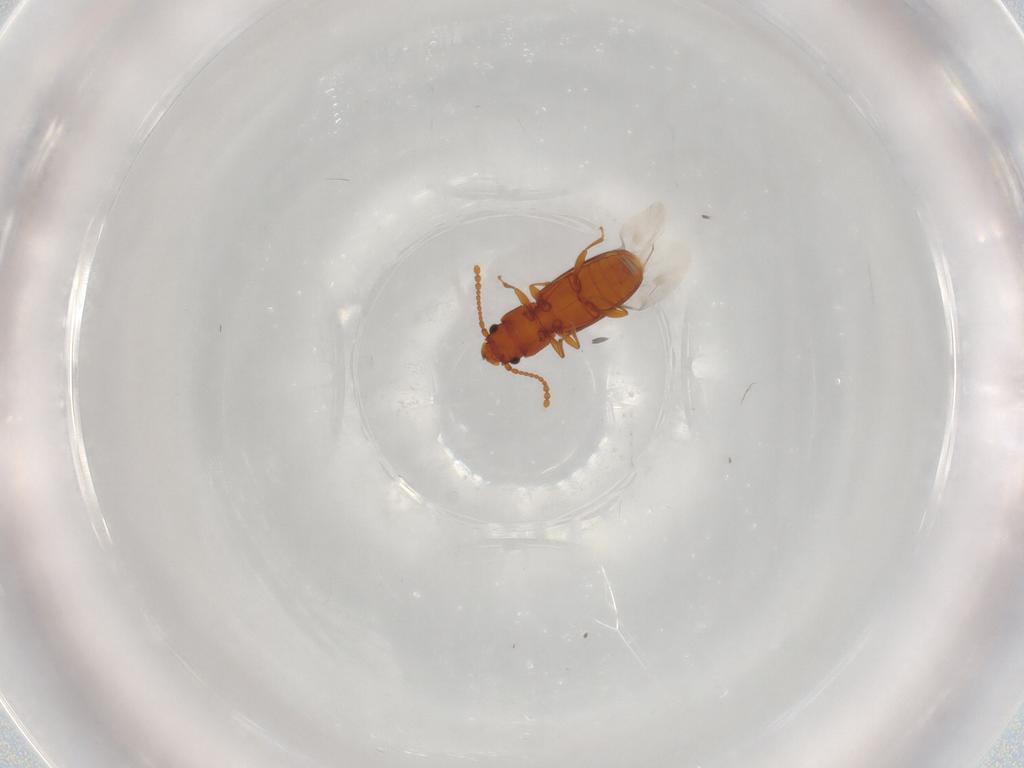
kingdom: Animalia
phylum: Arthropoda
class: Insecta
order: Coleoptera
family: Laemophloeidae
